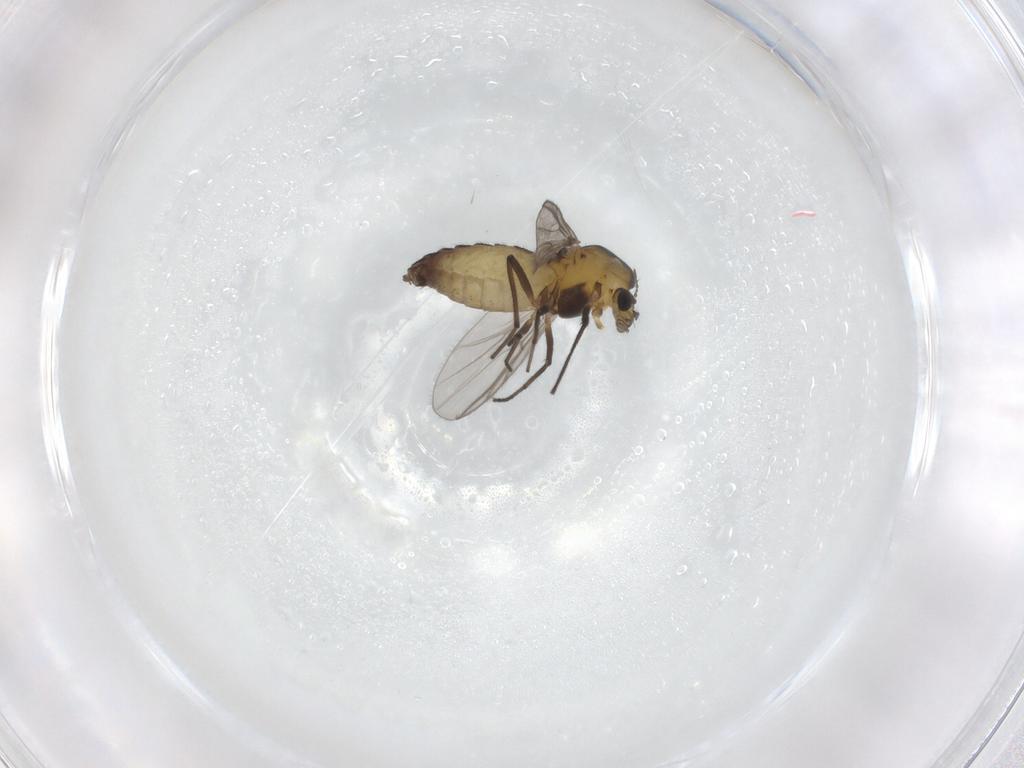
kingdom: Animalia
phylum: Arthropoda
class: Insecta
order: Diptera
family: Chironomidae
